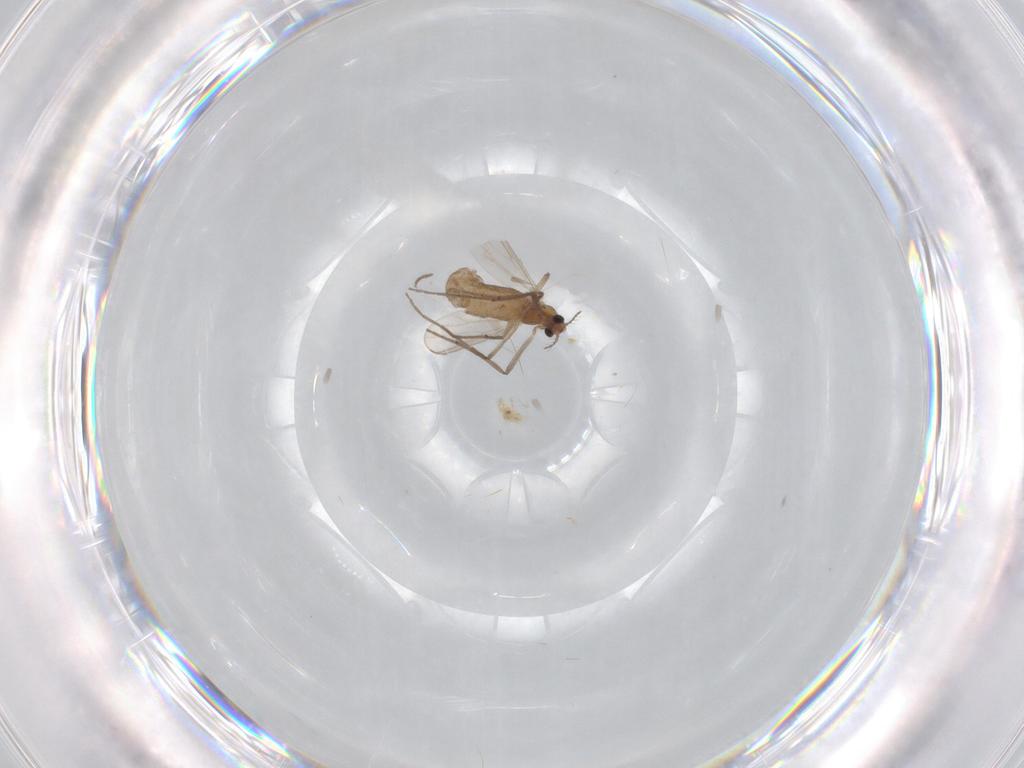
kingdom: Animalia
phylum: Arthropoda
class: Insecta
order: Diptera
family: Chironomidae
